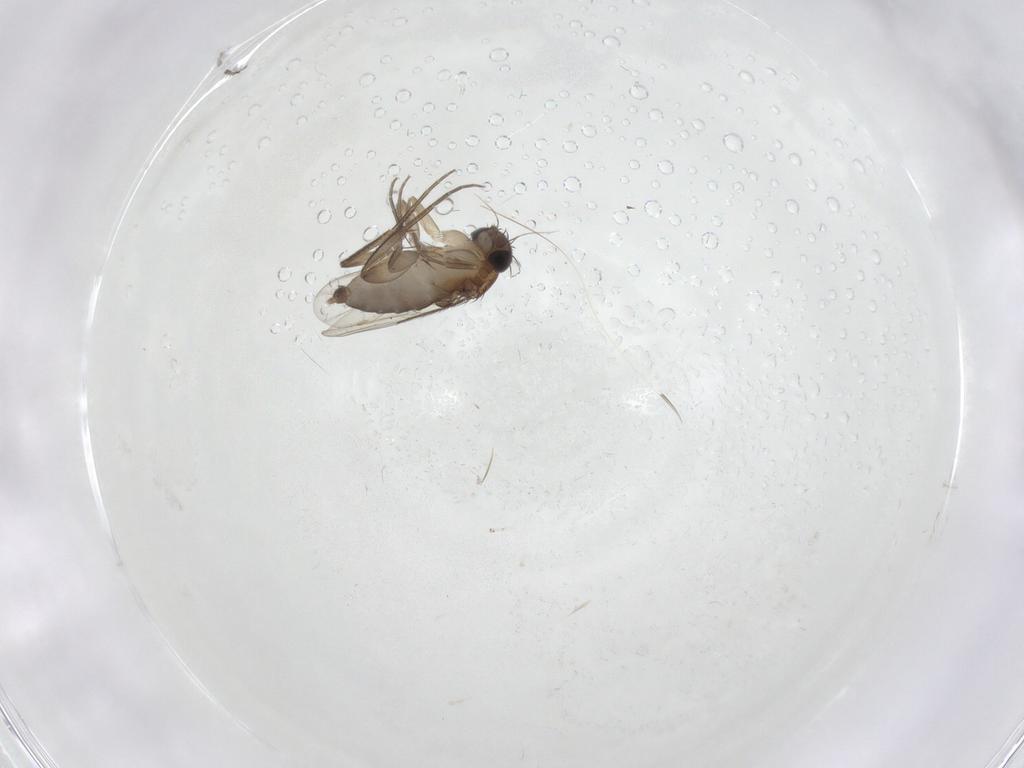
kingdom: Animalia
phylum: Arthropoda
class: Insecta
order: Diptera
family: Phoridae
